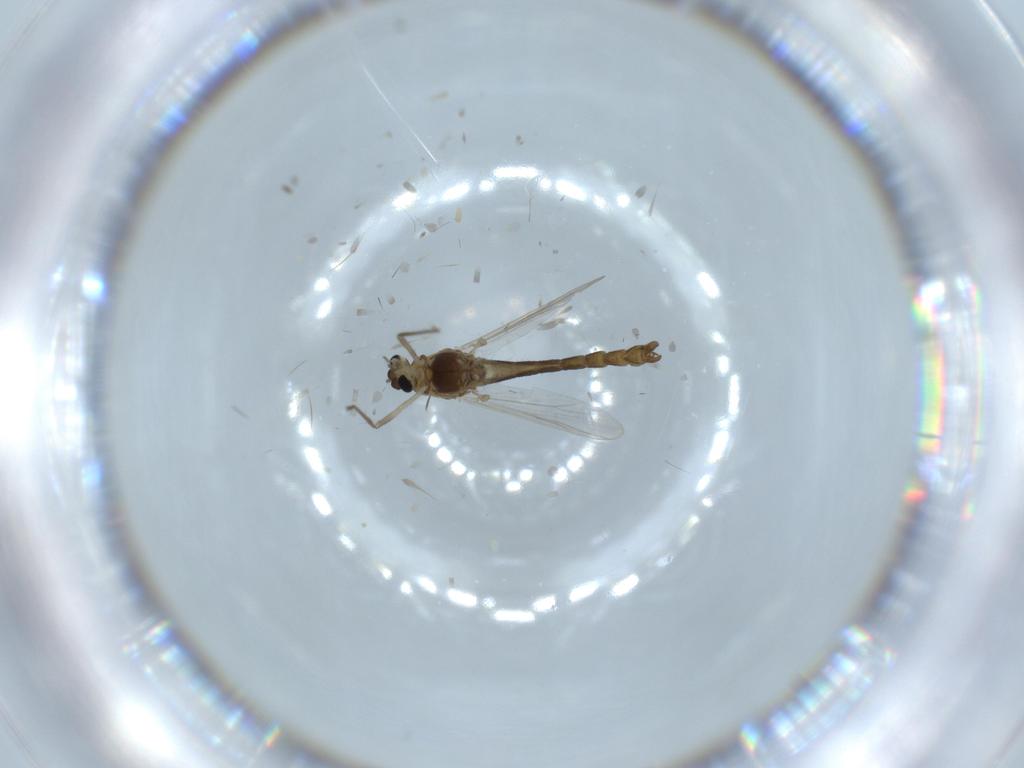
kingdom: Animalia
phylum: Arthropoda
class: Insecta
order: Diptera
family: Chironomidae
